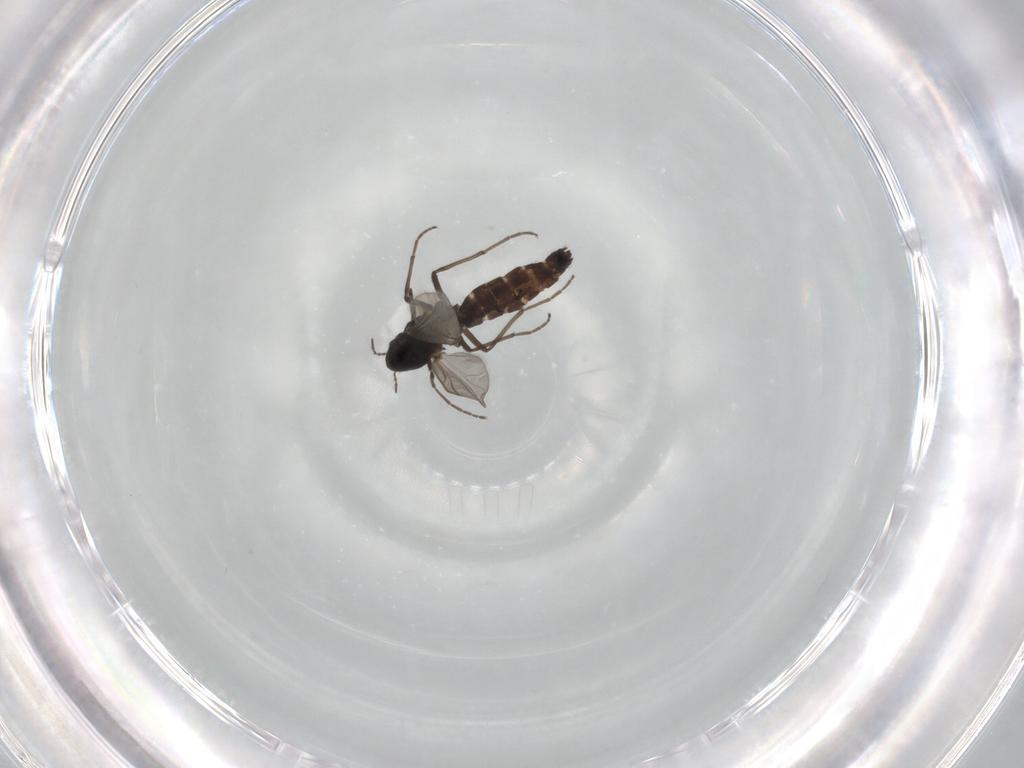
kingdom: Animalia
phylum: Arthropoda
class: Insecta
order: Diptera
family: Chironomidae
